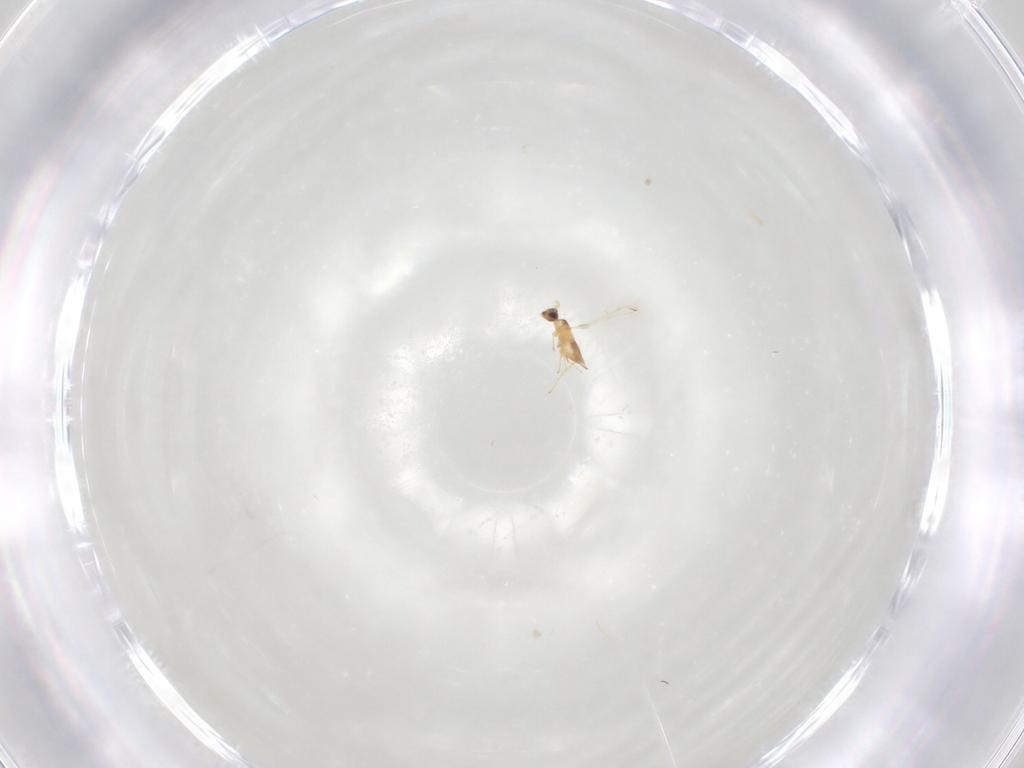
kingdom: Animalia
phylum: Arthropoda
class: Insecta
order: Hymenoptera
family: Mymaridae
